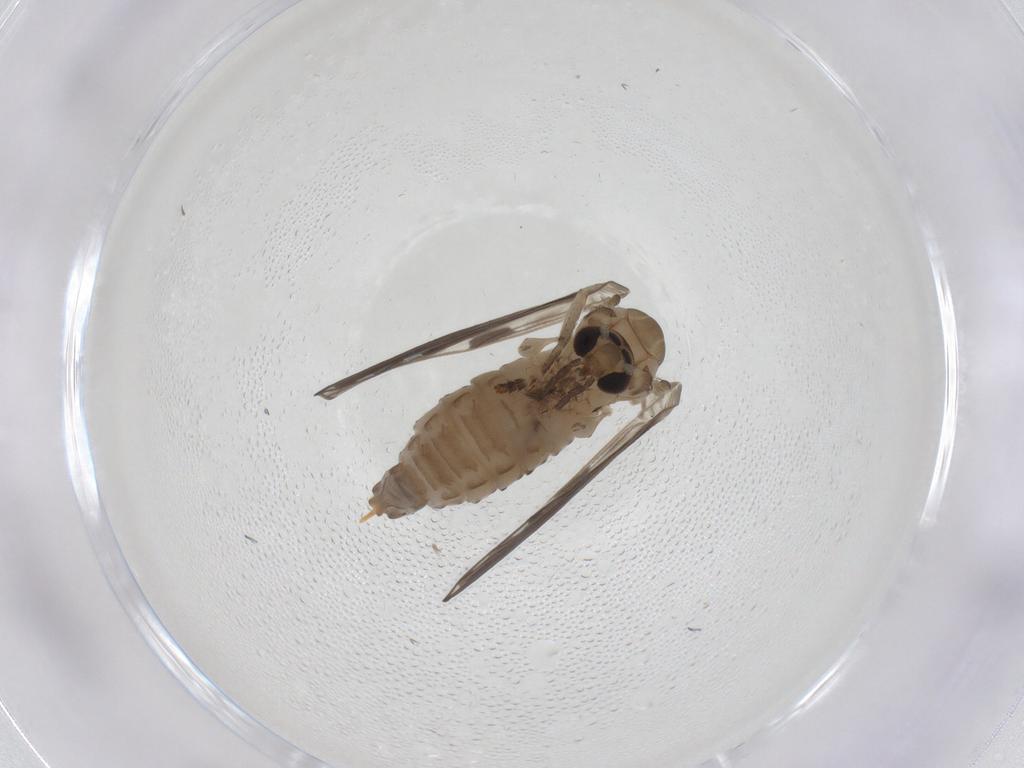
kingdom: Animalia
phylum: Arthropoda
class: Insecta
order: Diptera
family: Psychodidae
